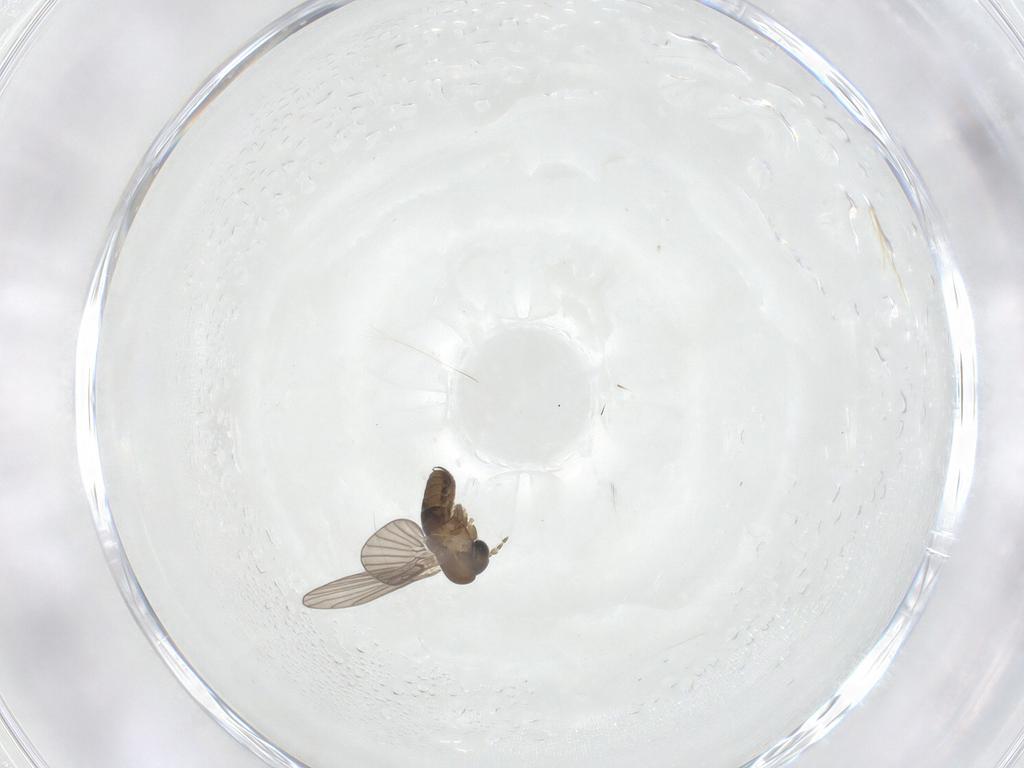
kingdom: Animalia
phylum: Arthropoda
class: Insecta
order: Diptera
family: Psychodidae
